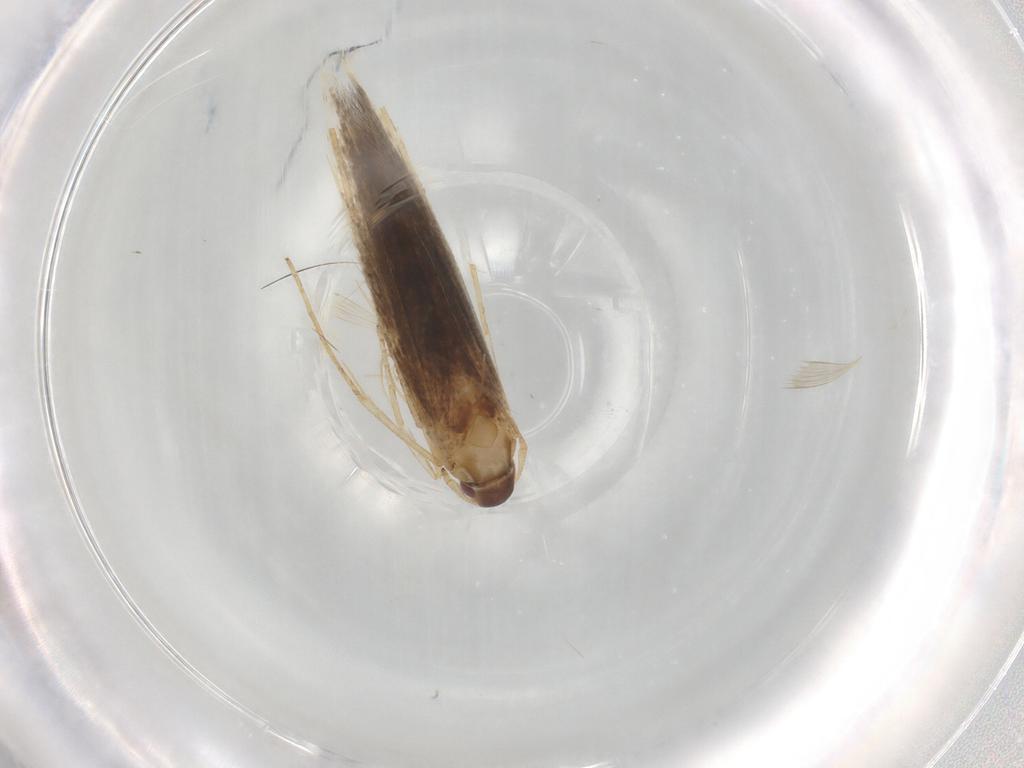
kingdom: Animalia
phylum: Arthropoda
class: Insecta
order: Lepidoptera
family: Cosmopterigidae
